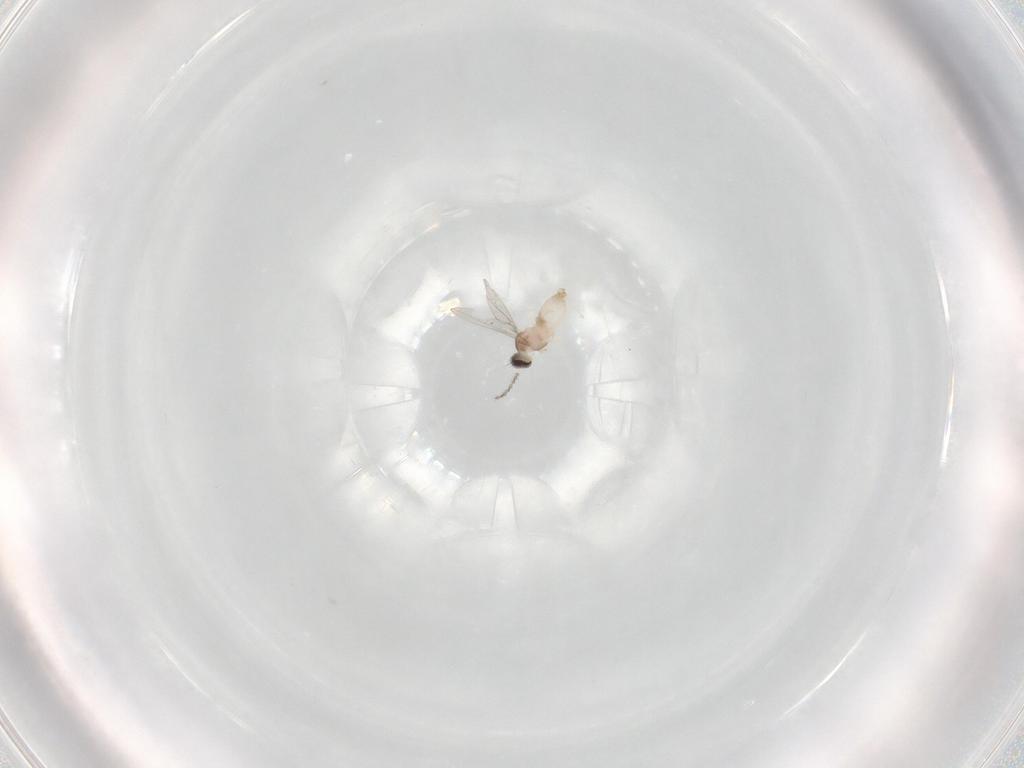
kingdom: Animalia
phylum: Arthropoda
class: Insecta
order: Diptera
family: Cecidomyiidae
